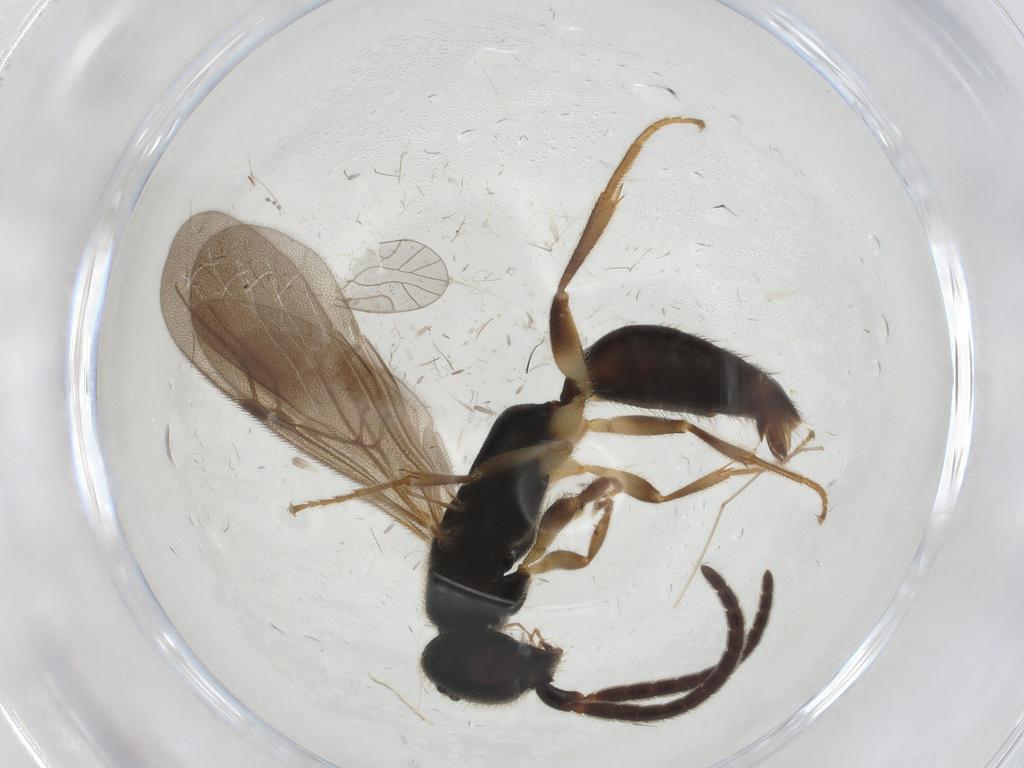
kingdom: Animalia
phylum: Arthropoda
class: Insecta
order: Hymenoptera
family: Bethylidae
